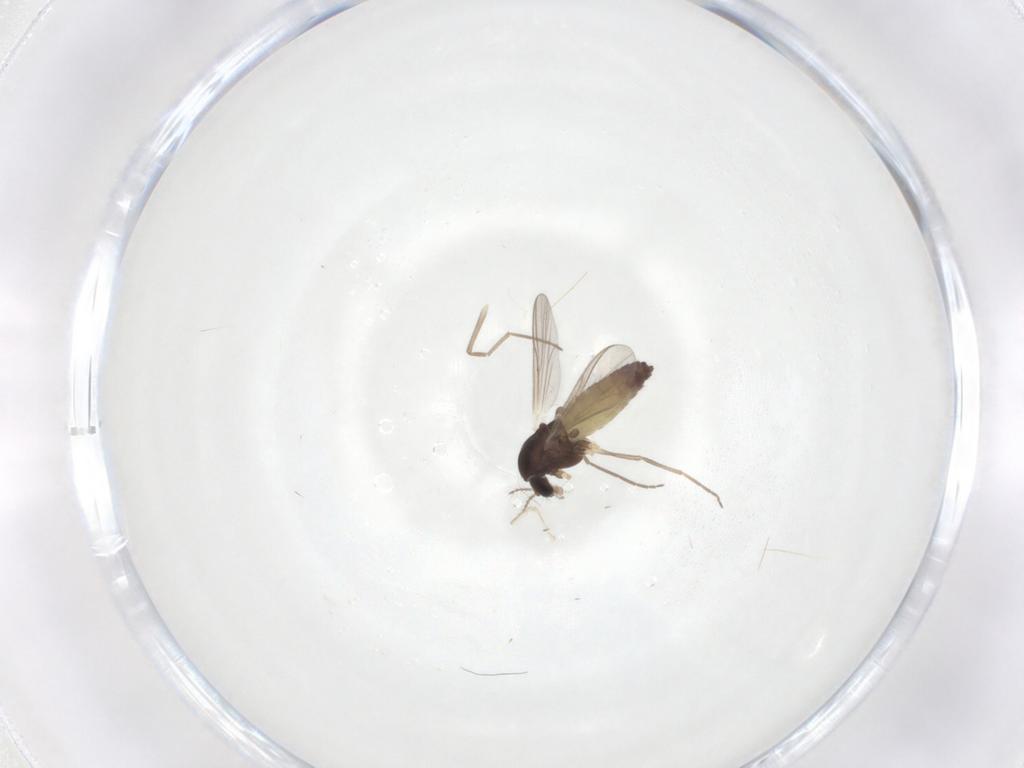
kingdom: Animalia
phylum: Arthropoda
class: Insecta
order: Diptera
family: Chironomidae
